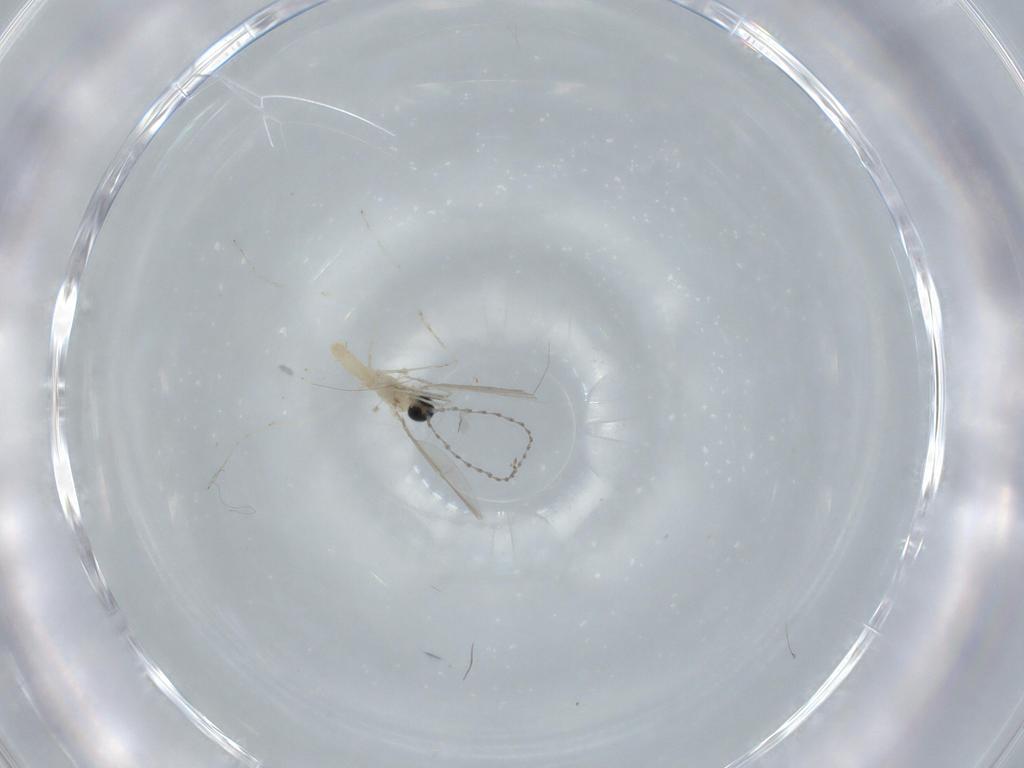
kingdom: Animalia
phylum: Arthropoda
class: Insecta
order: Diptera
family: Cecidomyiidae
